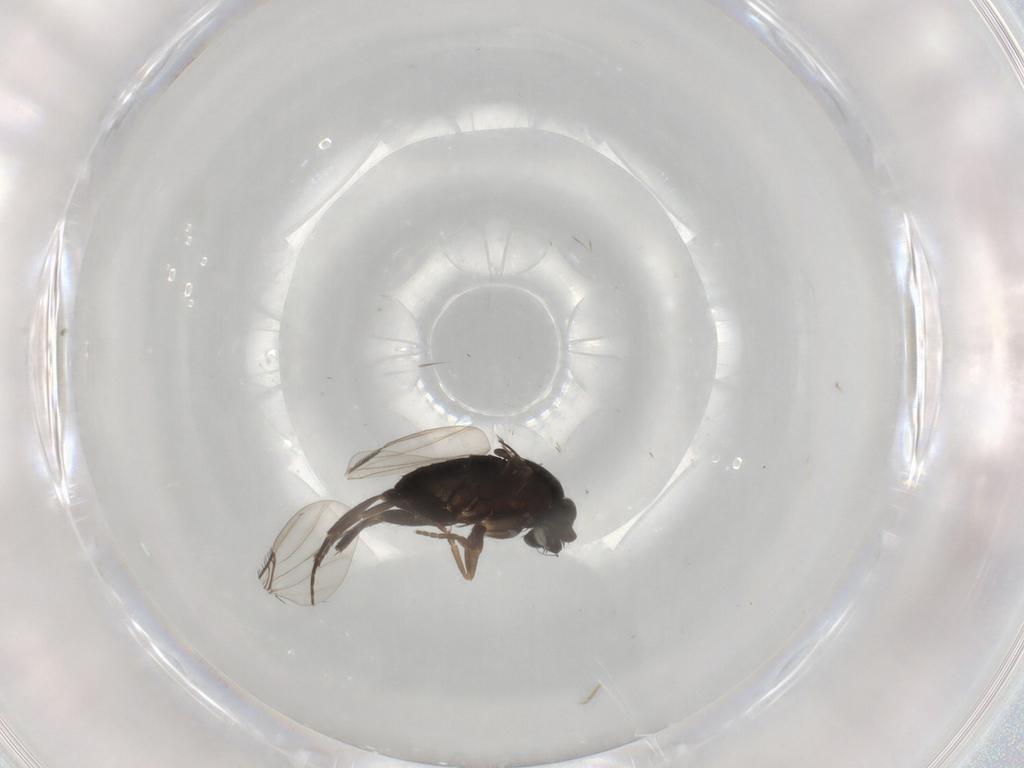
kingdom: Animalia
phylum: Arthropoda
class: Insecta
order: Diptera
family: Phoridae
